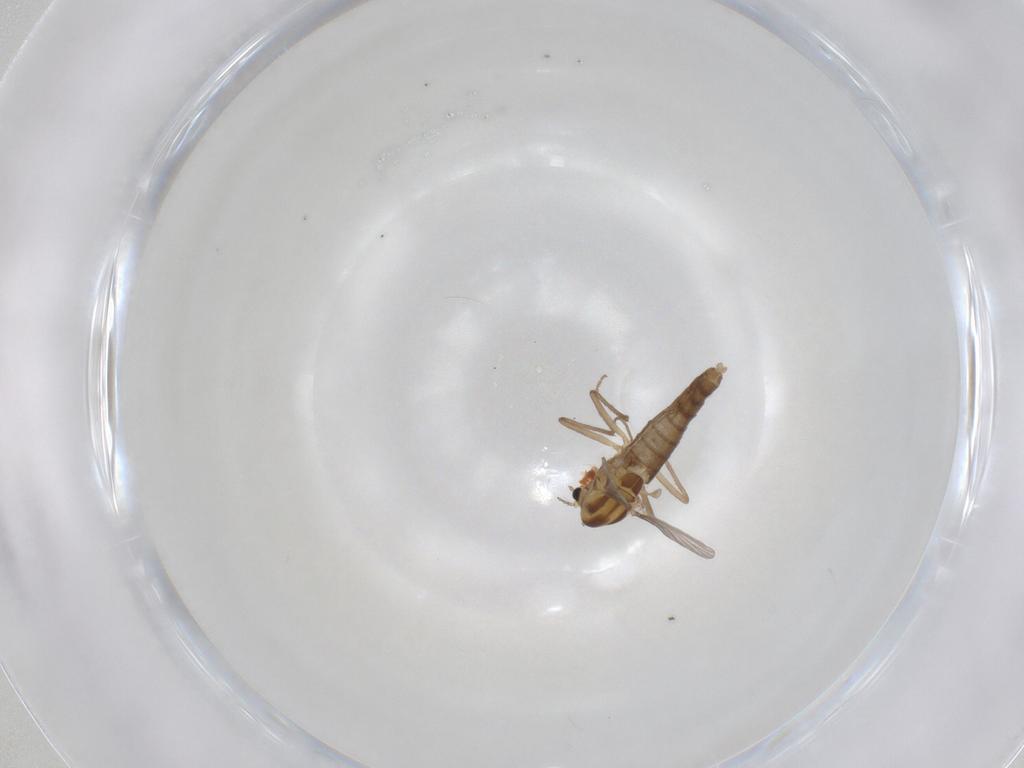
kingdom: Animalia
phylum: Arthropoda
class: Insecta
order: Diptera
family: Chironomidae
